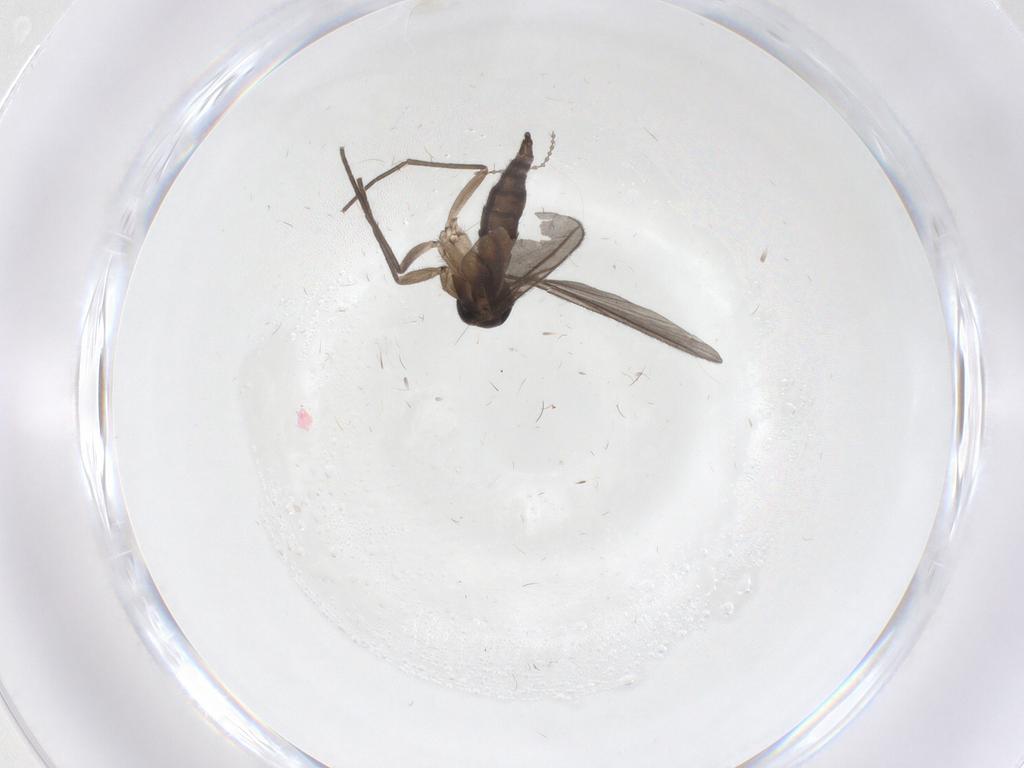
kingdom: Animalia
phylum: Arthropoda
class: Insecta
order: Diptera
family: Sciaridae
